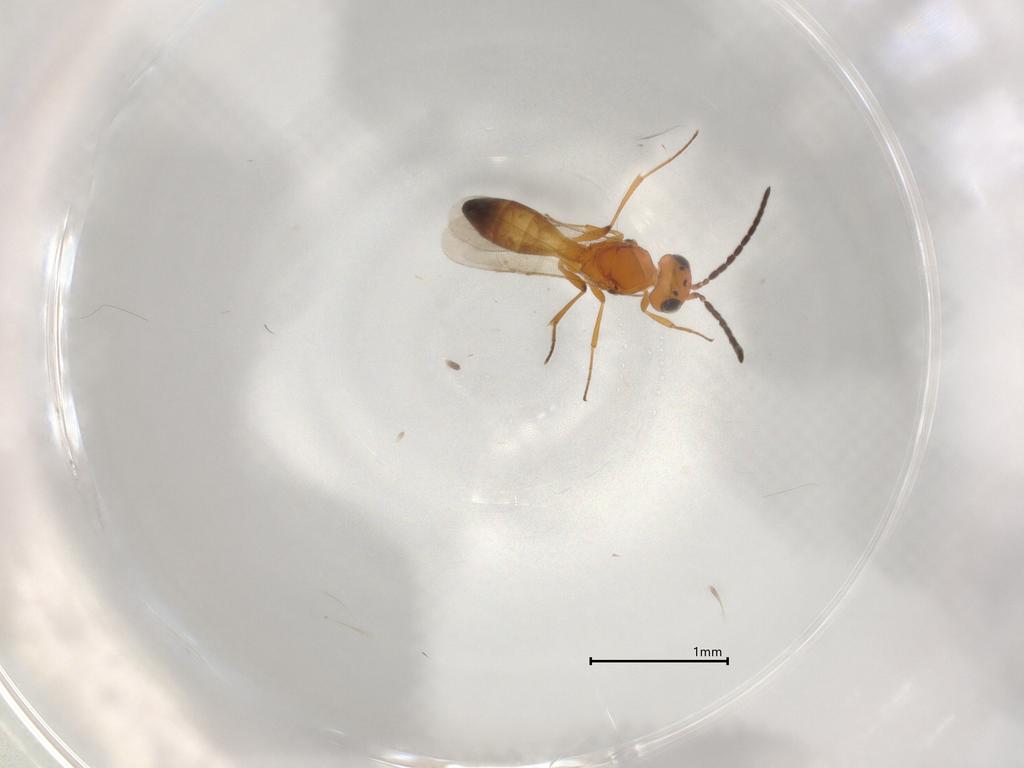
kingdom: Animalia
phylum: Arthropoda
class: Insecta
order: Hymenoptera
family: Scelionidae
